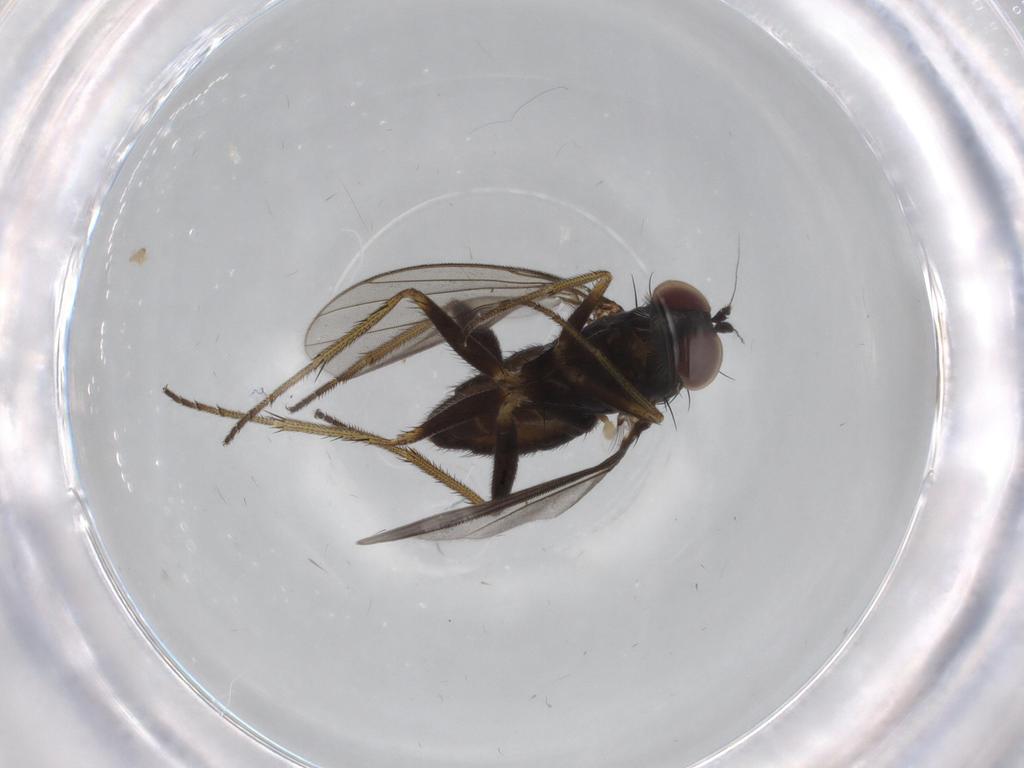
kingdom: Animalia
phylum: Arthropoda
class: Insecta
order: Diptera
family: Dolichopodidae
